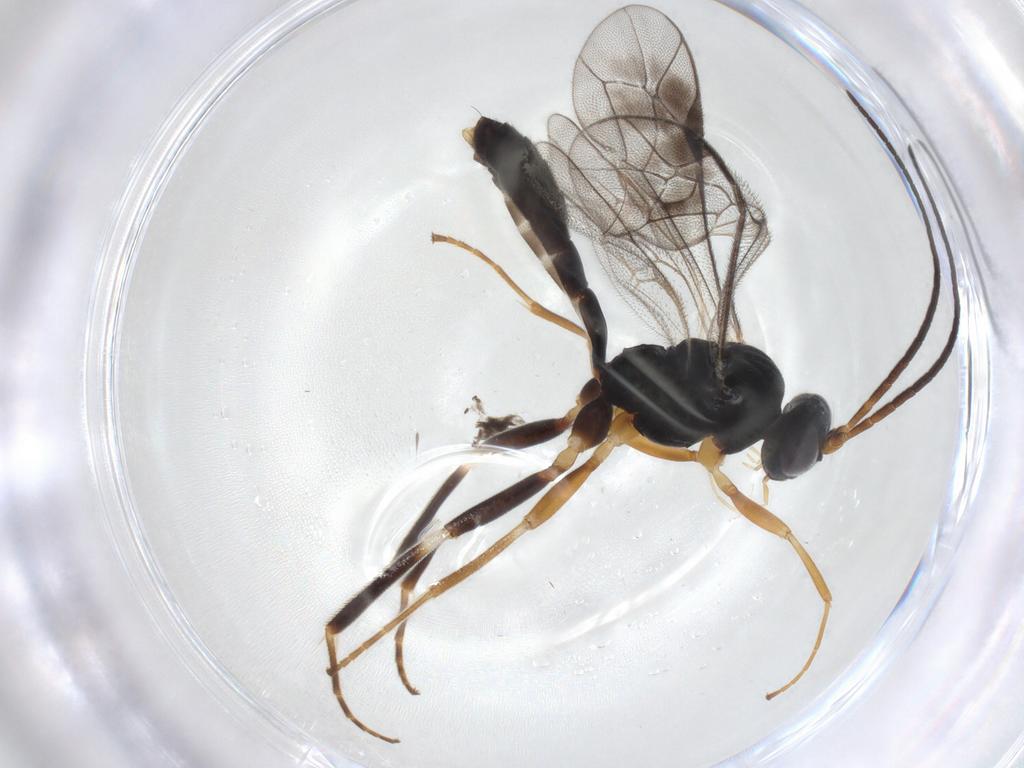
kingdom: Animalia
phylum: Arthropoda
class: Insecta
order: Hymenoptera
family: Ichneumonidae
